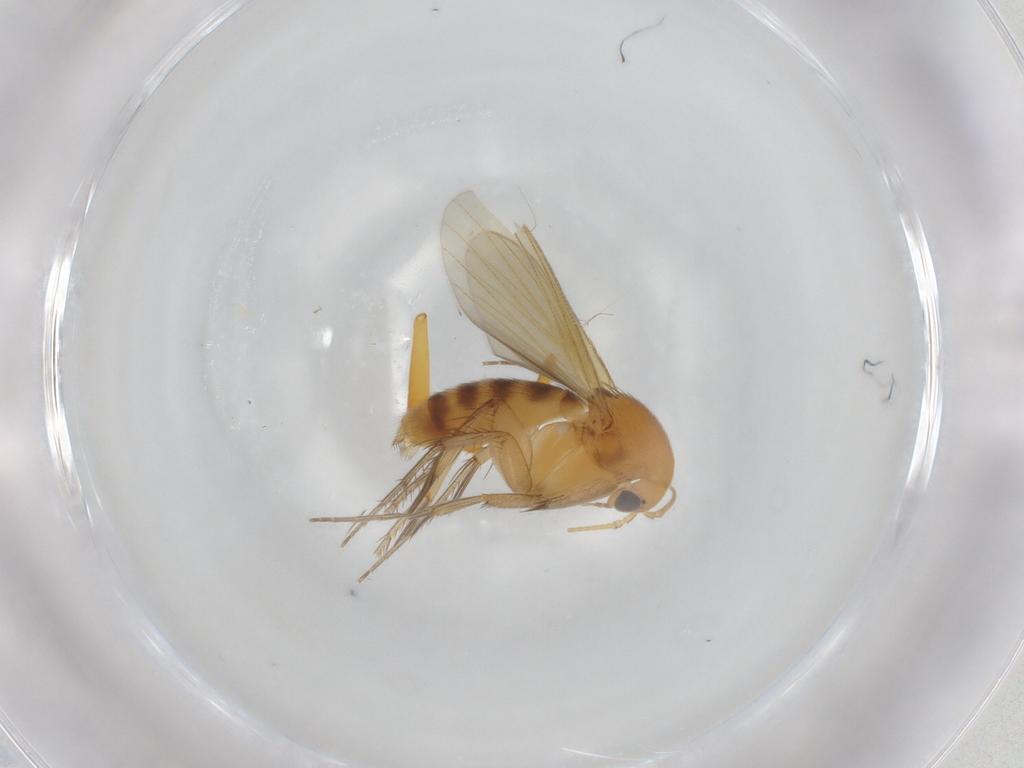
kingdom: Animalia
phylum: Arthropoda
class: Insecta
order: Diptera
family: Mycetophilidae
